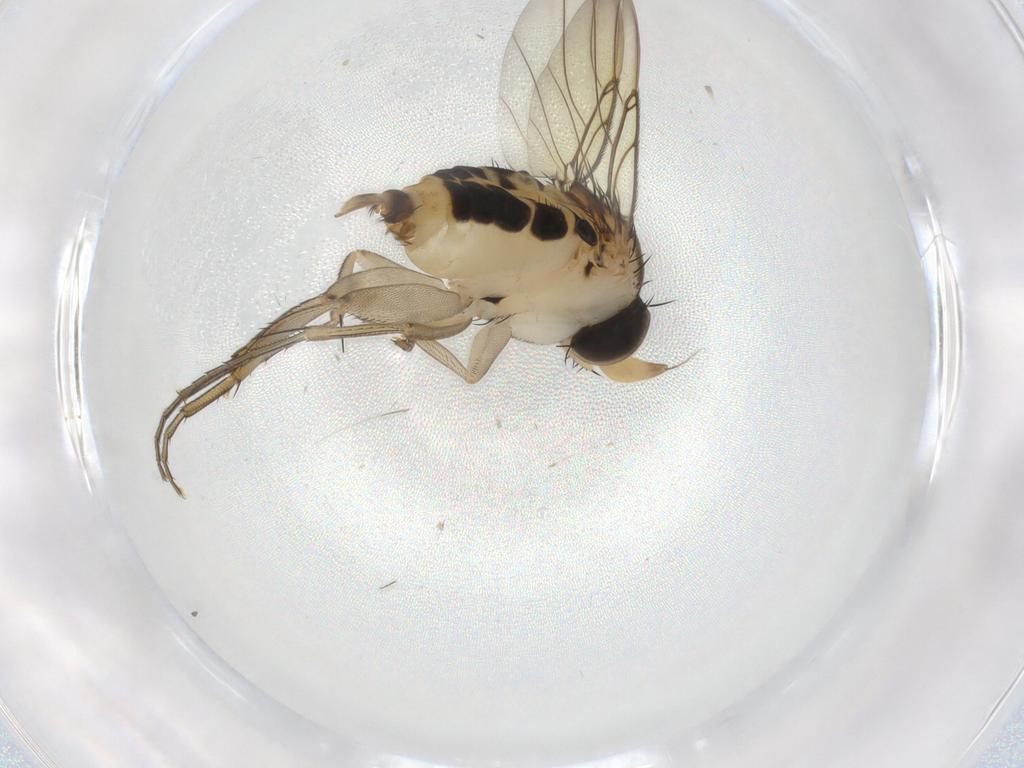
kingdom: Animalia
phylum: Arthropoda
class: Insecta
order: Diptera
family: Phoridae
